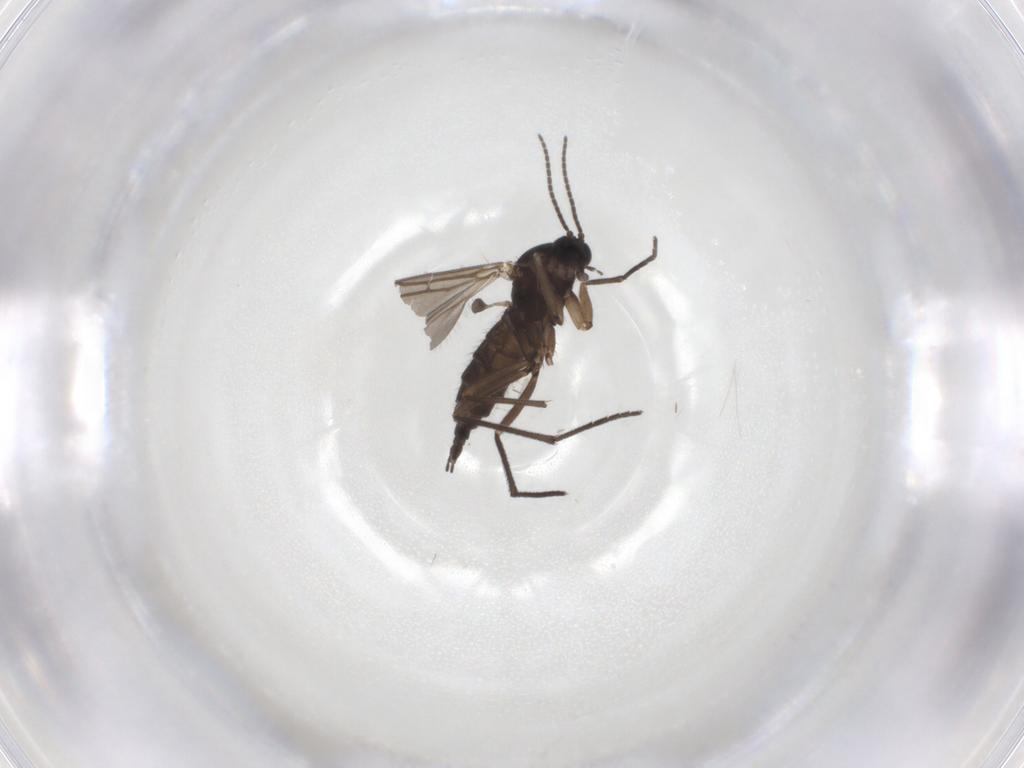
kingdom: Animalia
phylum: Arthropoda
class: Insecta
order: Diptera
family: Sciaridae
